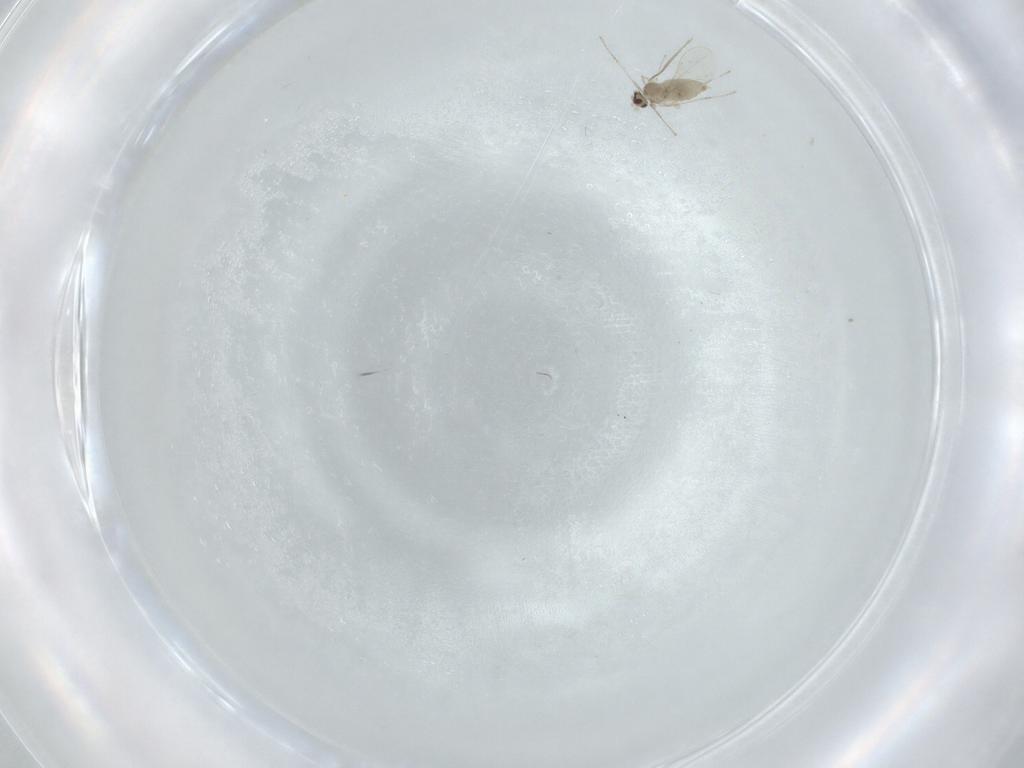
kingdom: Animalia
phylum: Arthropoda
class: Insecta
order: Diptera
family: Cecidomyiidae
